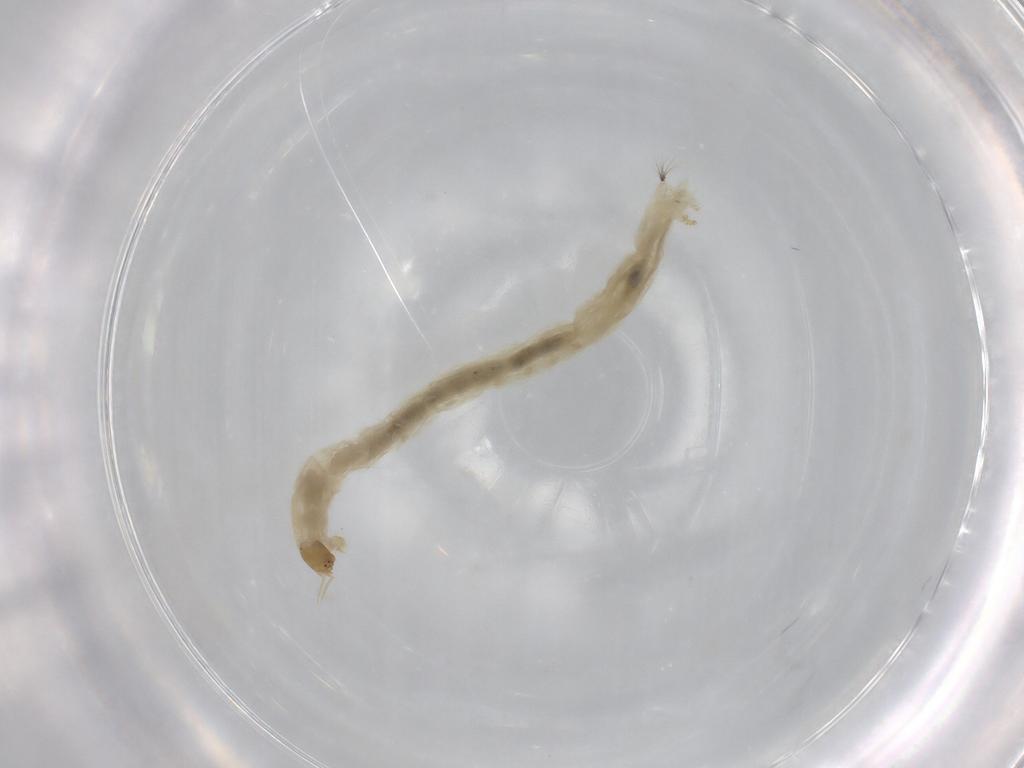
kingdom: Animalia
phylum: Arthropoda
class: Insecta
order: Diptera
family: Chironomidae
